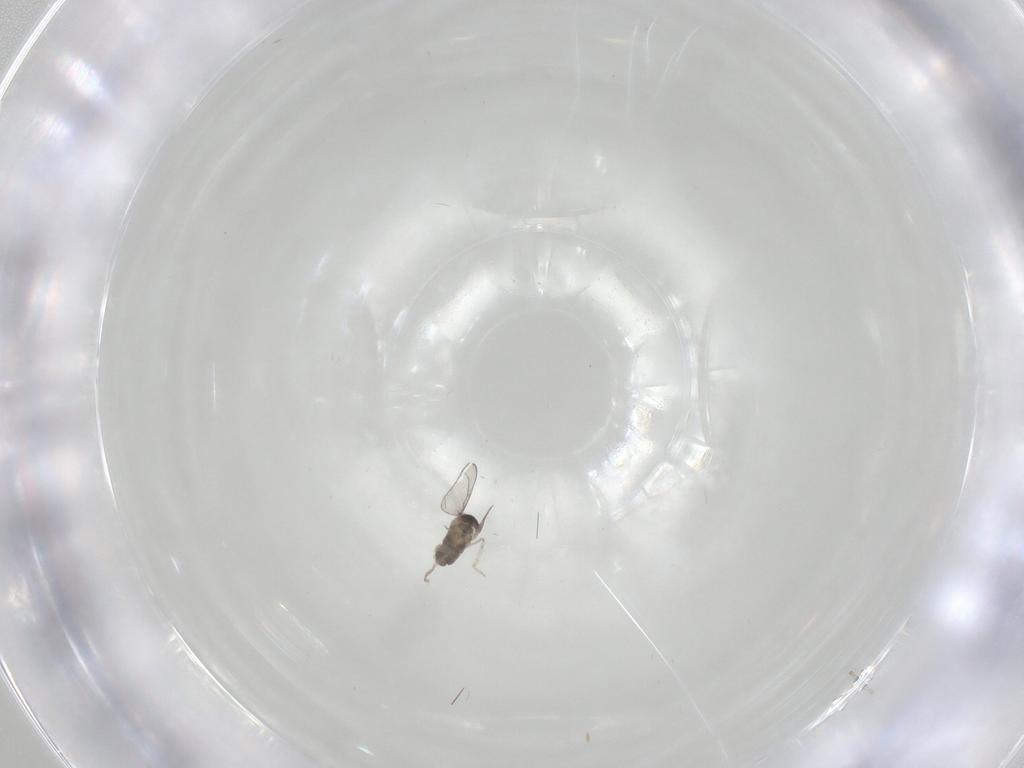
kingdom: Animalia
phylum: Arthropoda
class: Insecta
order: Diptera
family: Cecidomyiidae
